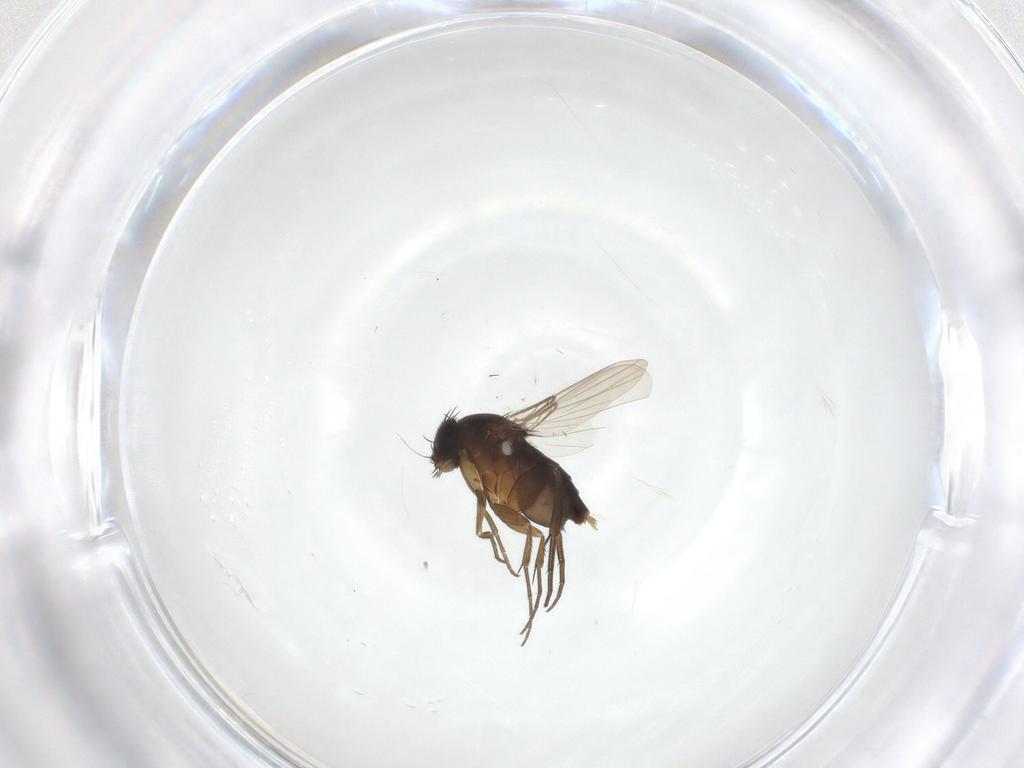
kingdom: Animalia
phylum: Arthropoda
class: Insecta
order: Diptera
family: Phoridae
